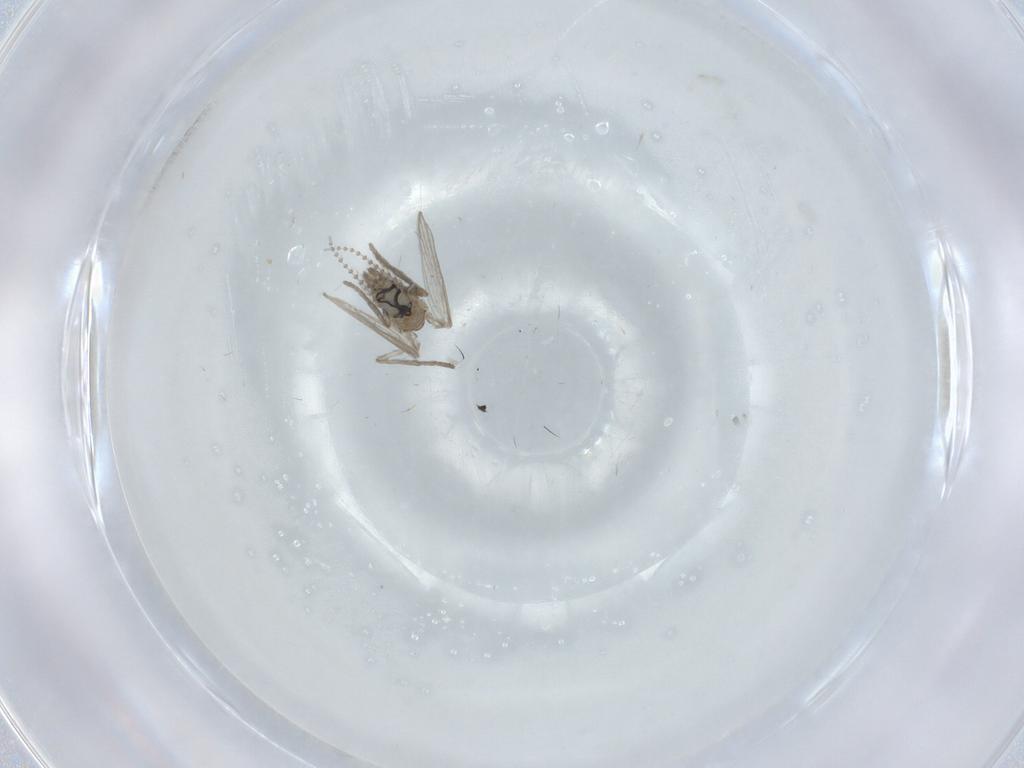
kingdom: Animalia
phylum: Arthropoda
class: Insecta
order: Diptera
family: Psychodidae
